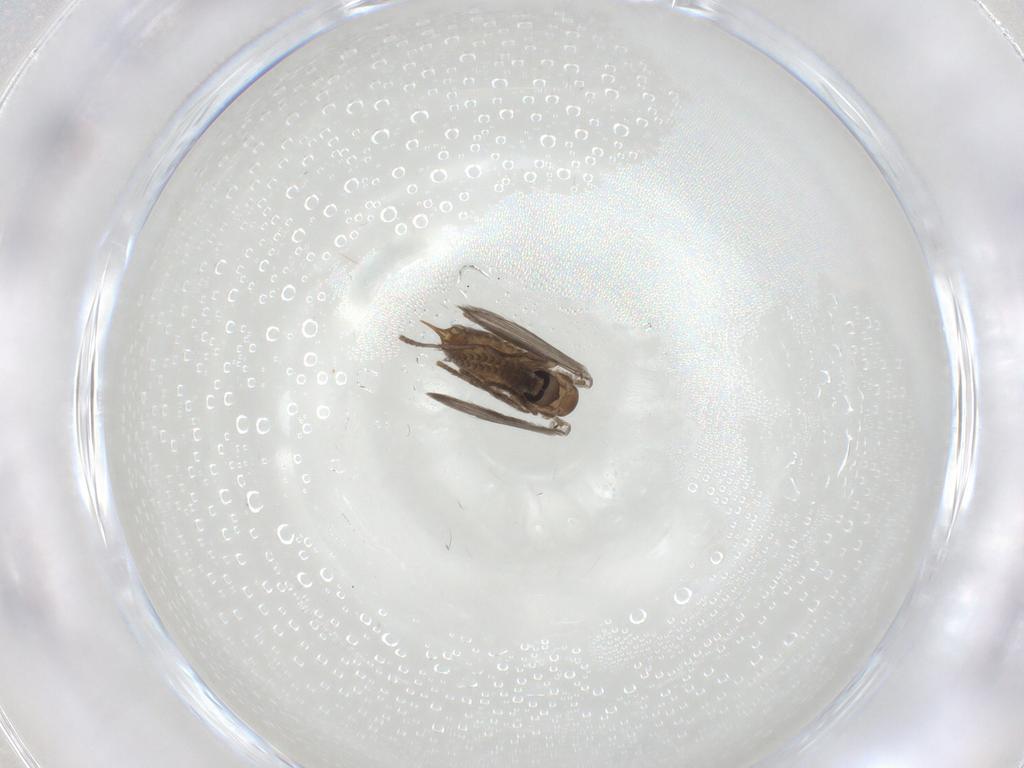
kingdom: Animalia
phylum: Arthropoda
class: Insecta
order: Diptera
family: Psychodidae
